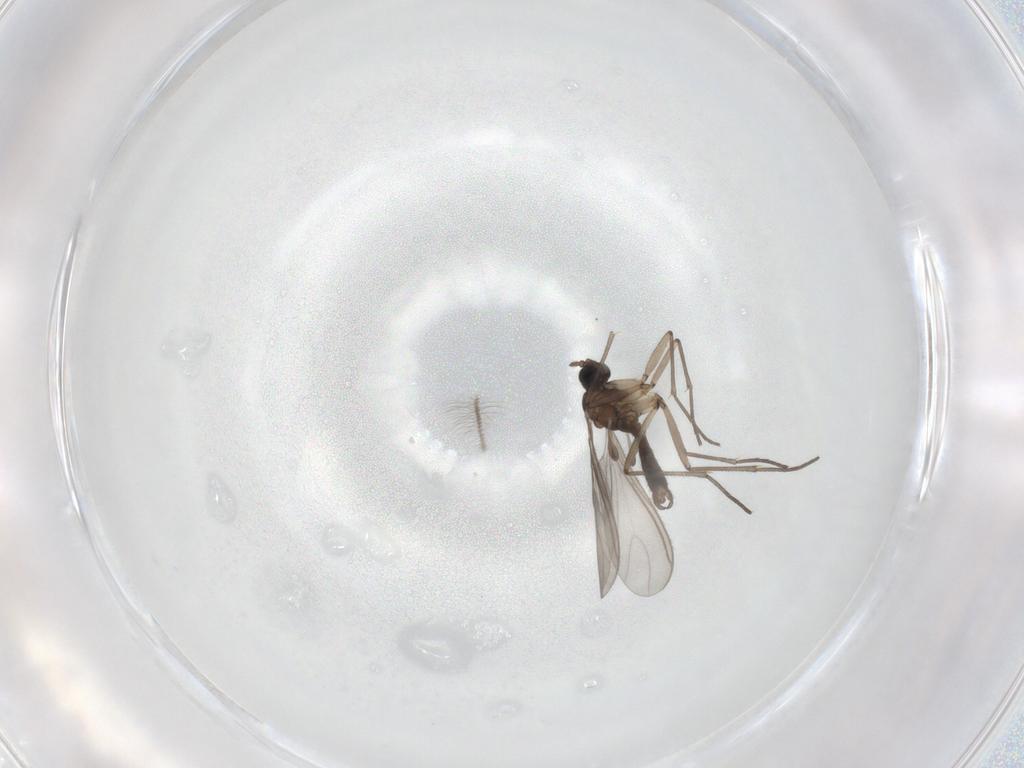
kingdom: Animalia
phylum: Arthropoda
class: Insecta
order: Diptera
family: Sciaridae
